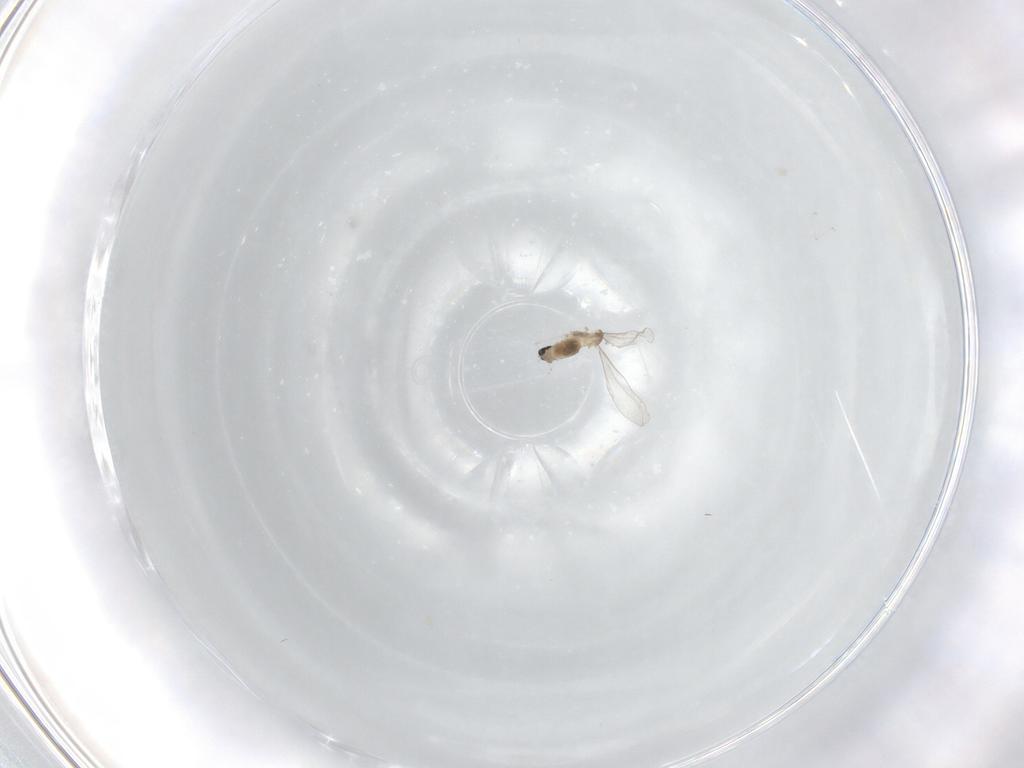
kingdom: Animalia
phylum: Arthropoda
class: Insecta
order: Diptera
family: Cecidomyiidae
